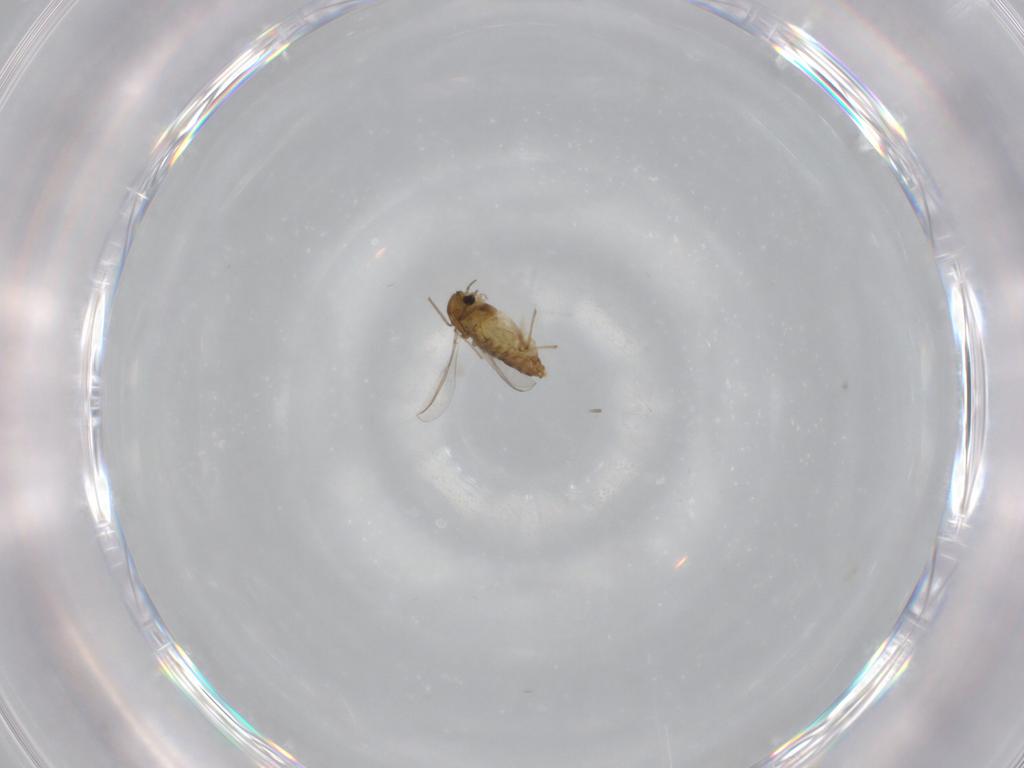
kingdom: Animalia
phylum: Arthropoda
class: Insecta
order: Diptera
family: Chironomidae
